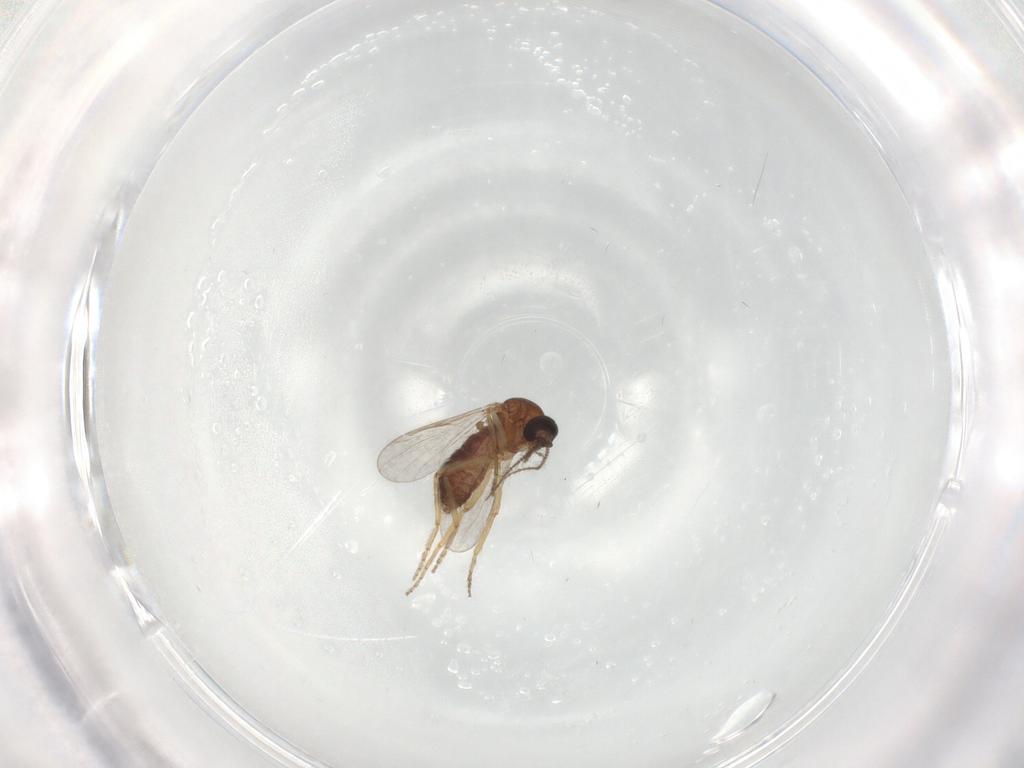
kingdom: Animalia
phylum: Arthropoda
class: Insecta
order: Diptera
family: Ceratopogonidae
